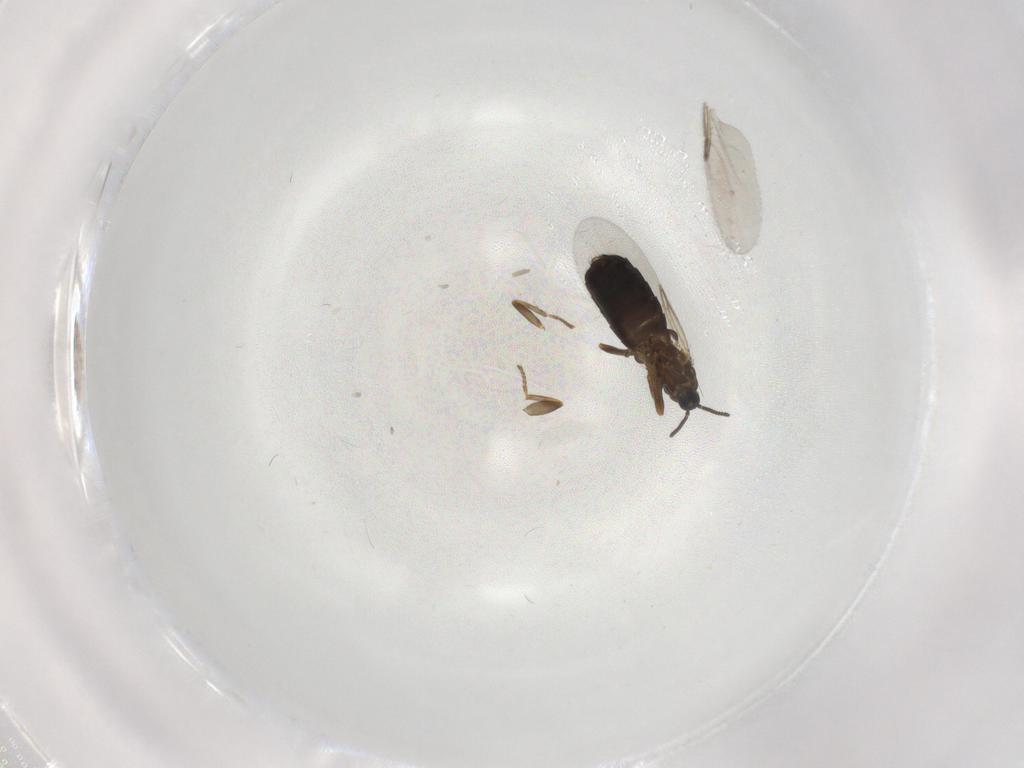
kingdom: Animalia
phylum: Arthropoda
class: Insecta
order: Diptera
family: Scatopsidae
